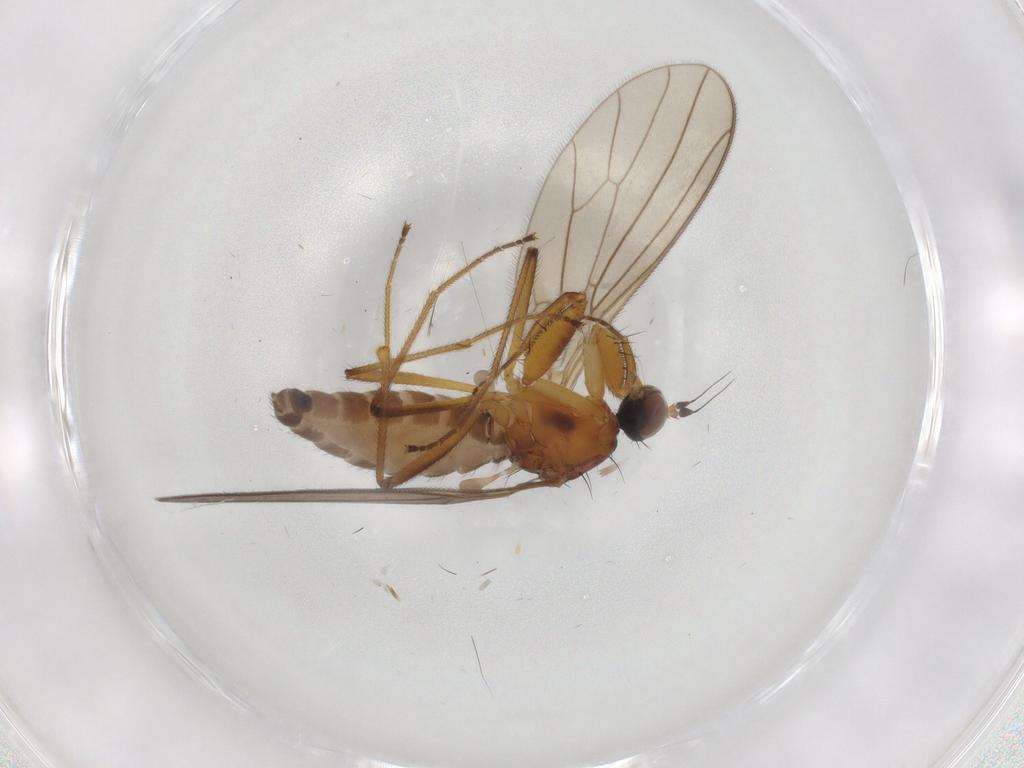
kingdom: Animalia
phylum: Arthropoda
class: Insecta
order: Diptera
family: Empididae
